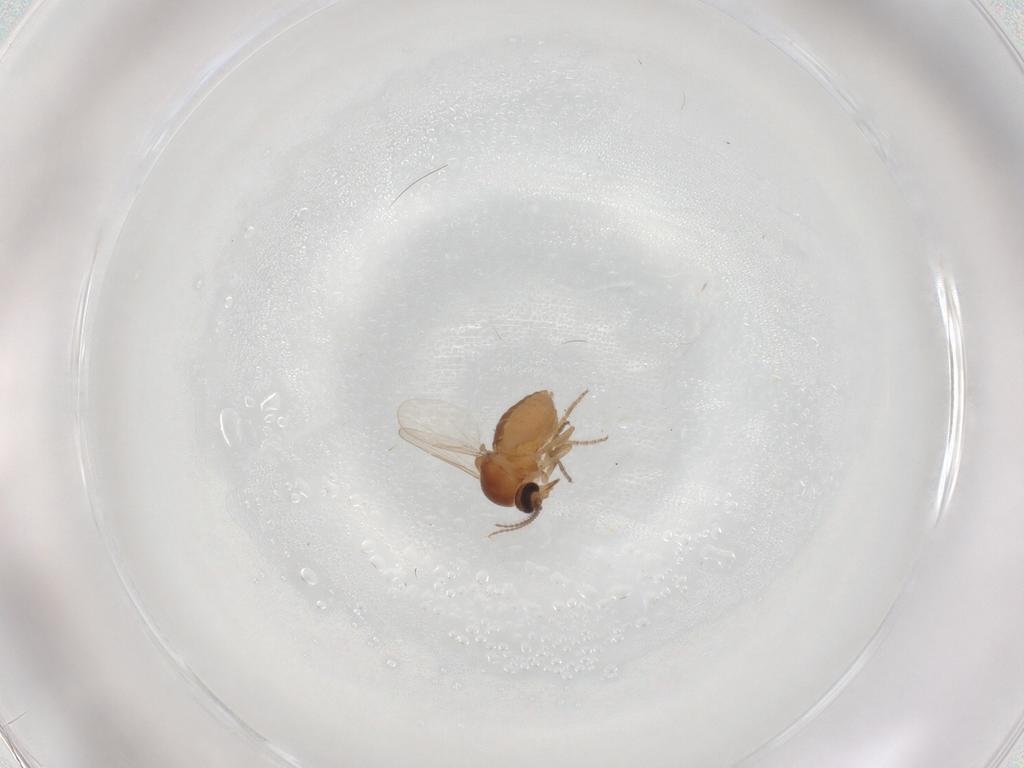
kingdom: Animalia
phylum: Arthropoda
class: Insecta
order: Diptera
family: Ceratopogonidae
